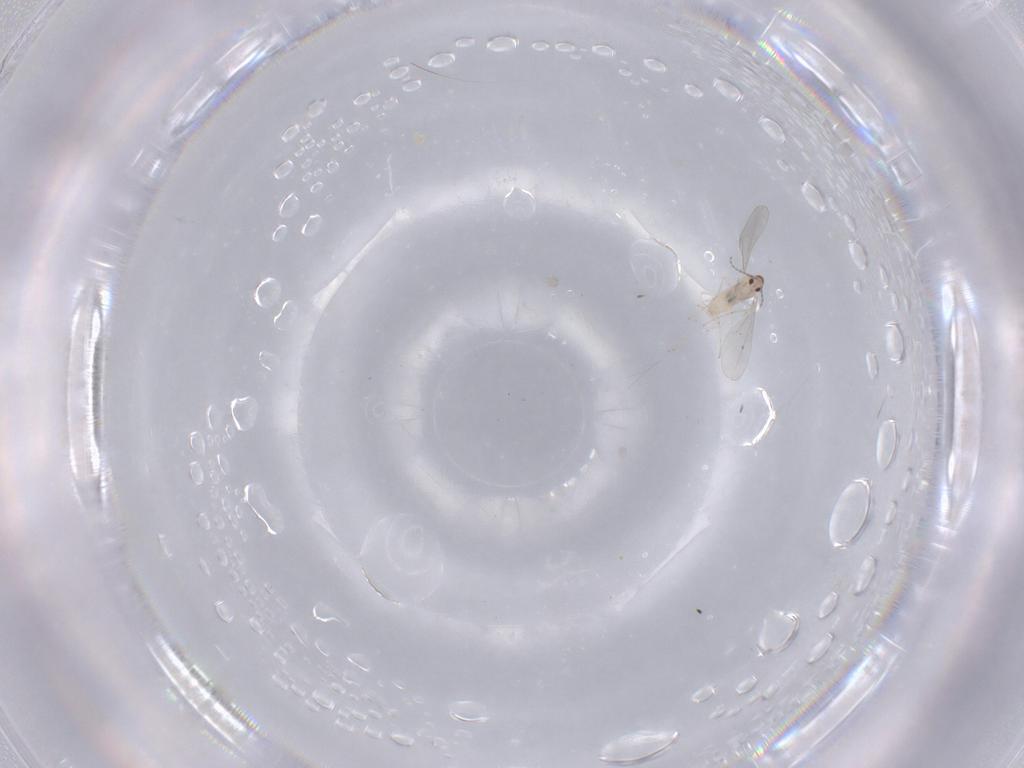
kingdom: Animalia
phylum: Arthropoda
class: Insecta
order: Diptera
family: Cecidomyiidae
